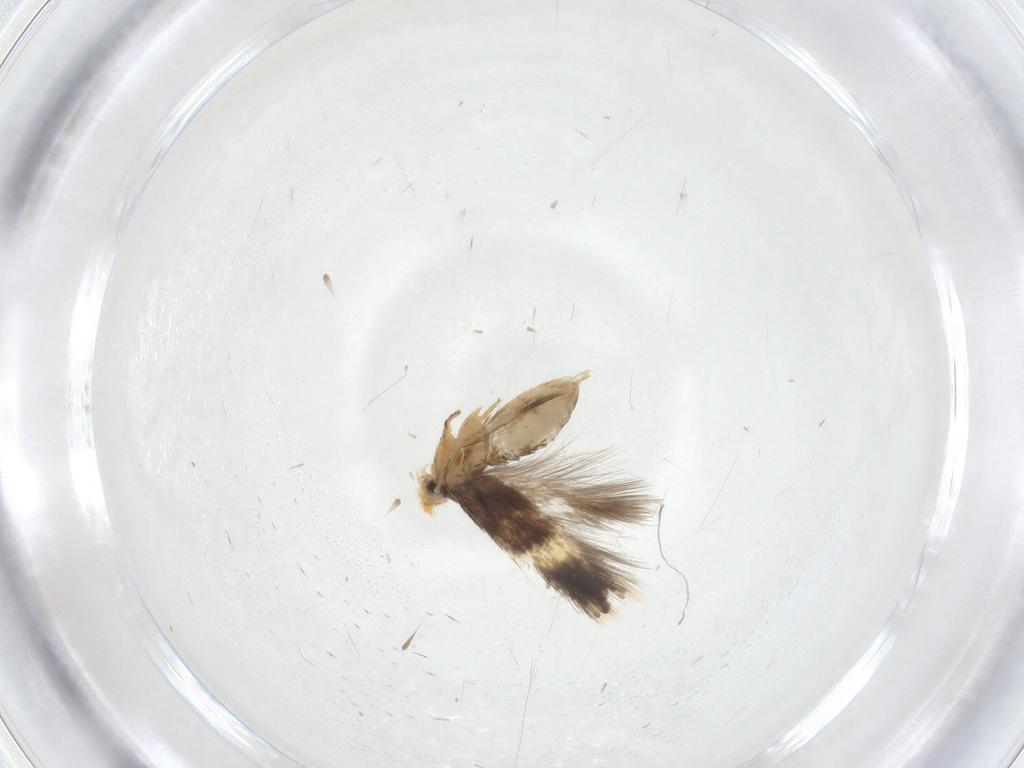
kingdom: Animalia
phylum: Arthropoda
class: Insecta
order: Lepidoptera
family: Nepticulidae
